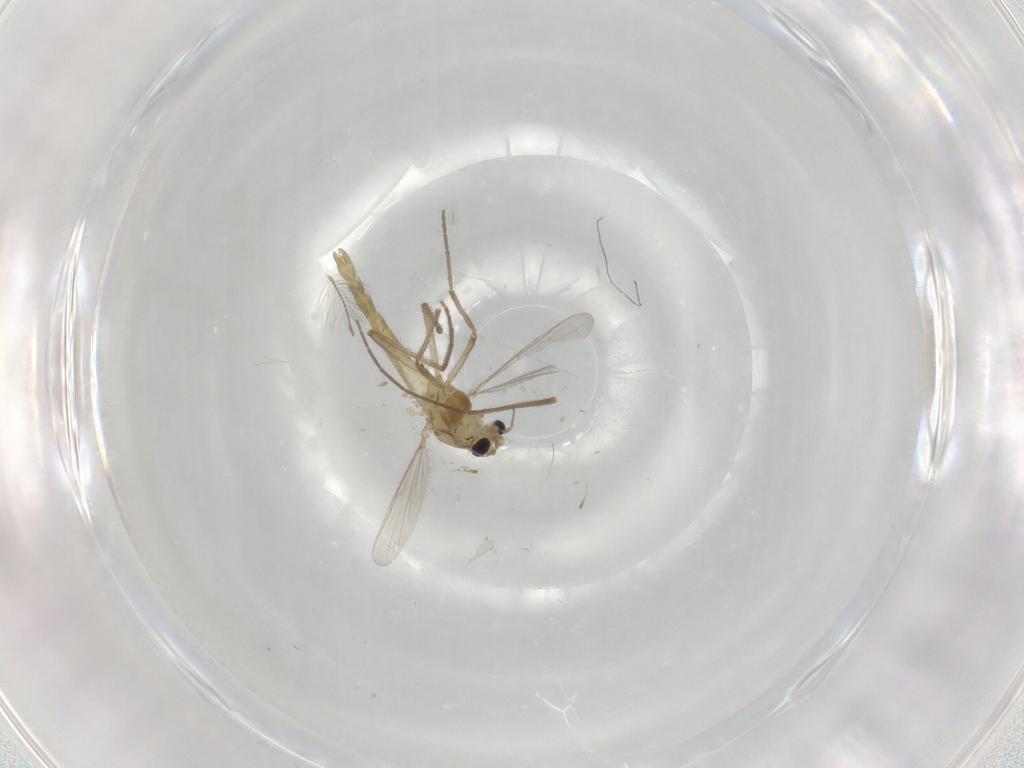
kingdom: Animalia
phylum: Arthropoda
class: Insecta
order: Diptera
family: Chironomidae
